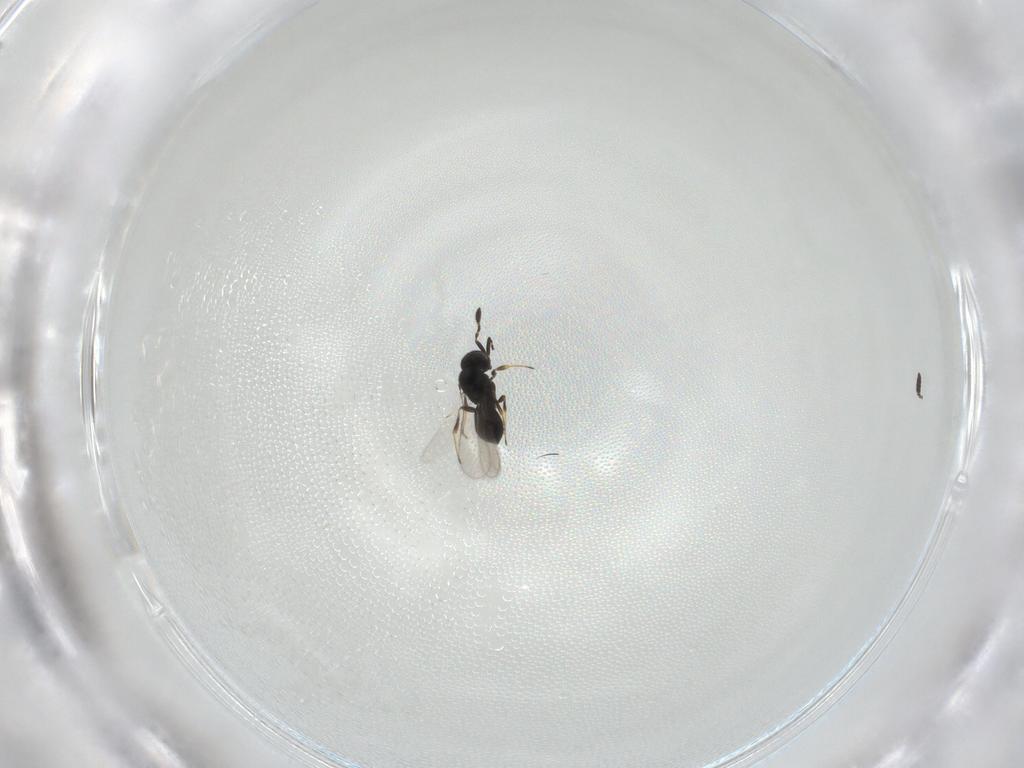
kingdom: Animalia
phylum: Arthropoda
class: Insecta
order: Hymenoptera
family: Scelionidae
